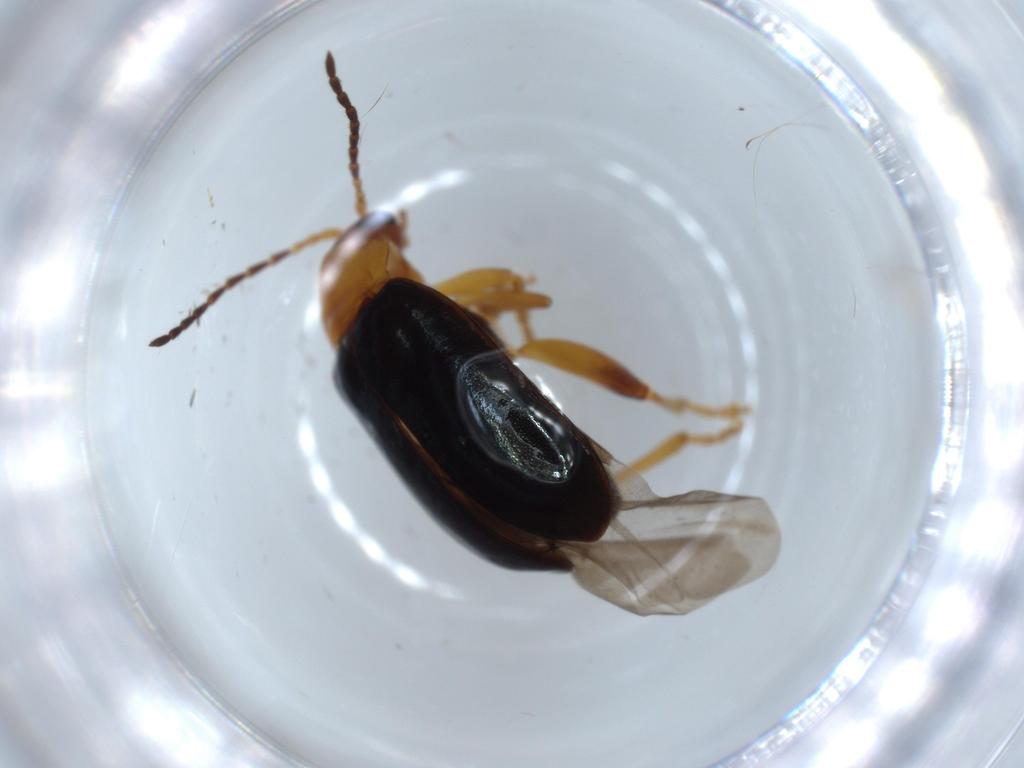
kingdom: Animalia
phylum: Arthropoda
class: Insecta
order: Coleoptera
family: Chrysomelidae
